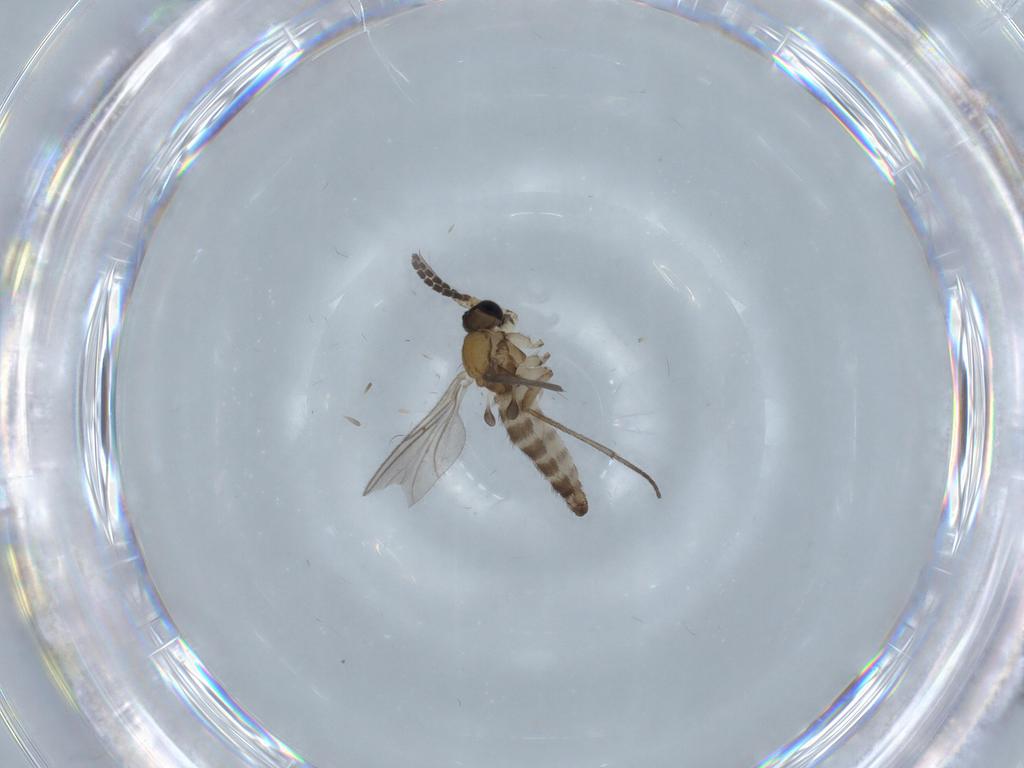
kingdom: Animalia
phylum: Arthropoda
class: Insecta
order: Diptera
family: Sciaridae
